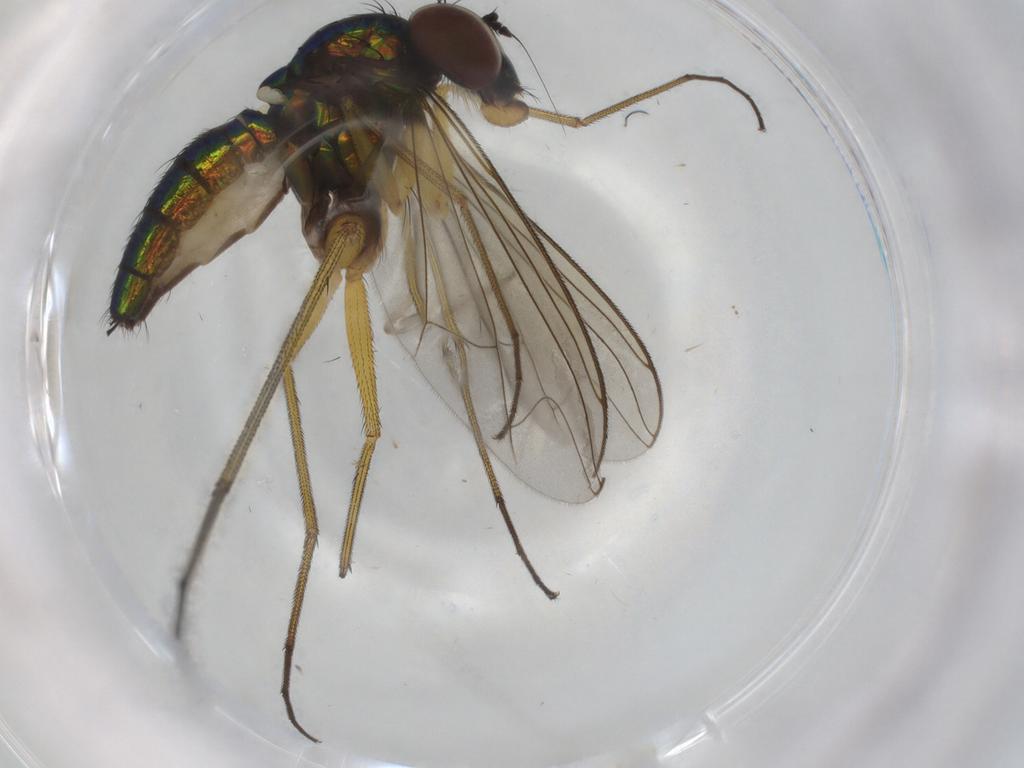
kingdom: Animalia
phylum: Arthropoda
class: Insecta
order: Diptera
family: Dolichopodidae
